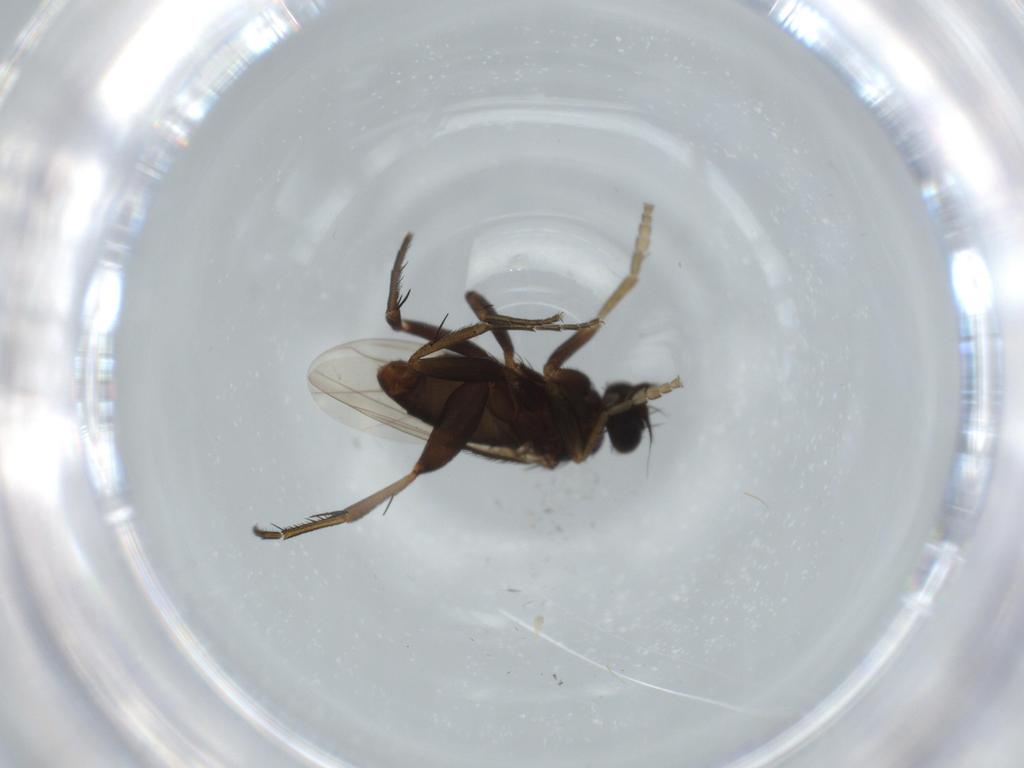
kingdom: Animalia
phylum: Arthropoda
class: Insecta
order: Diptera
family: Phoridae
